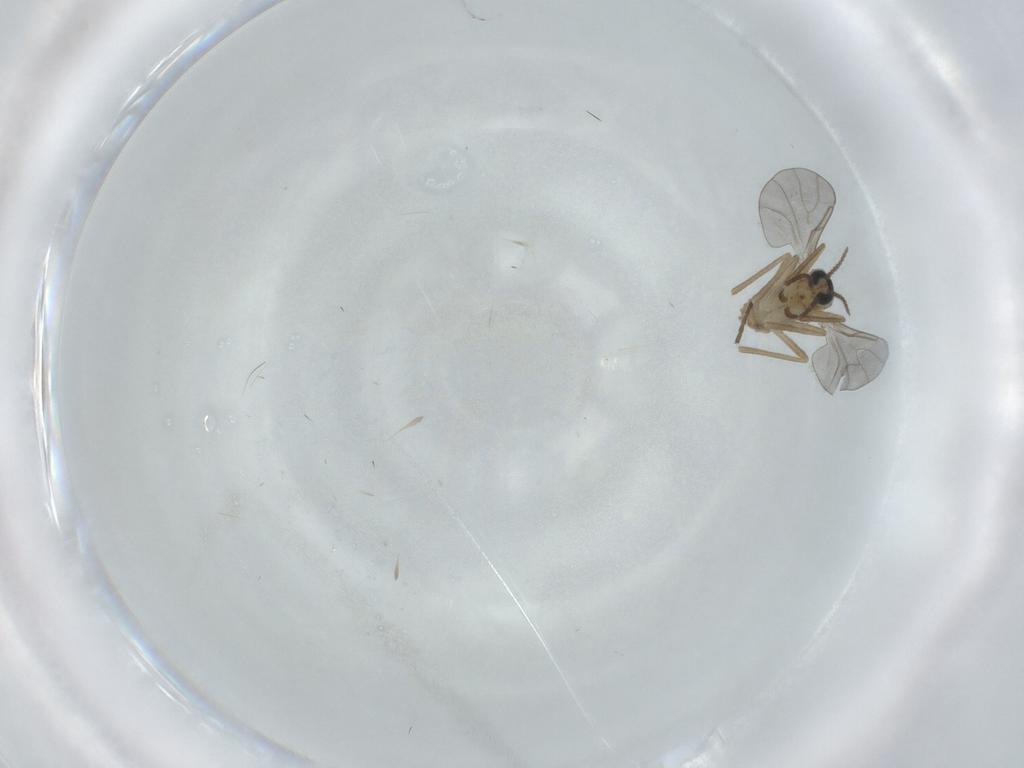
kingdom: Animalia
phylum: Arthropoda
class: Insecta
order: Diptera
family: Cecidomyiidae
